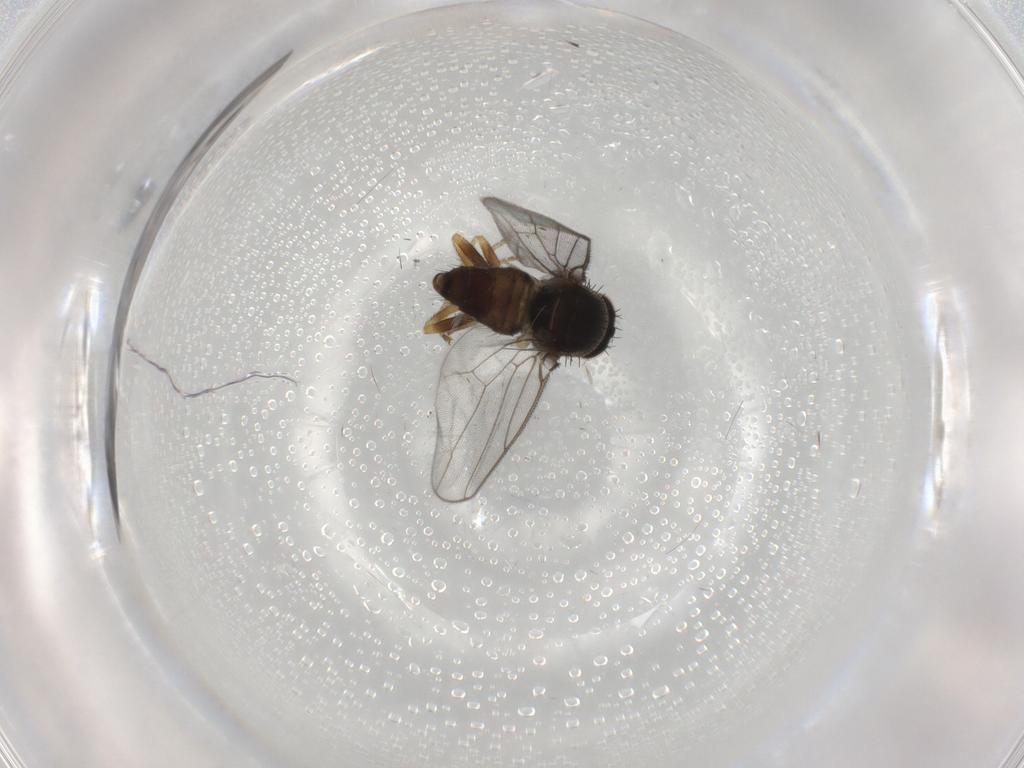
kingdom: Animalia
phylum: Arthropoda
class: Insecta
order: Diptera
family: Chloropidae
